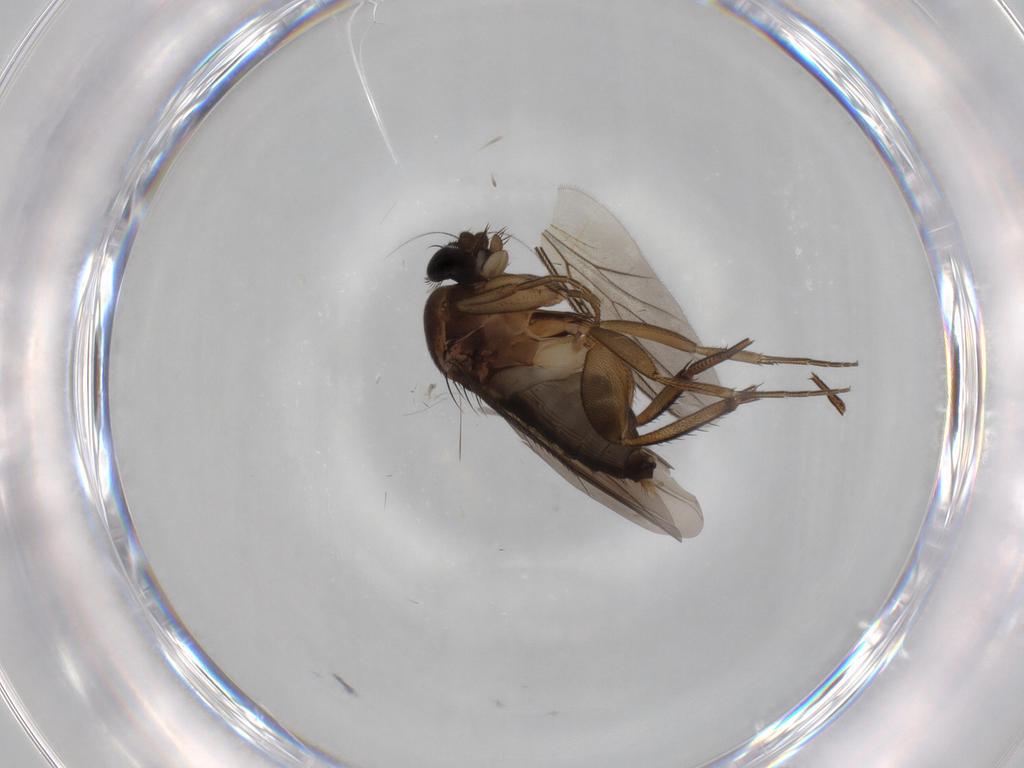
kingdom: Animalia
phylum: Arthropoda
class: Insecta
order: Diptera
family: Phoridae
